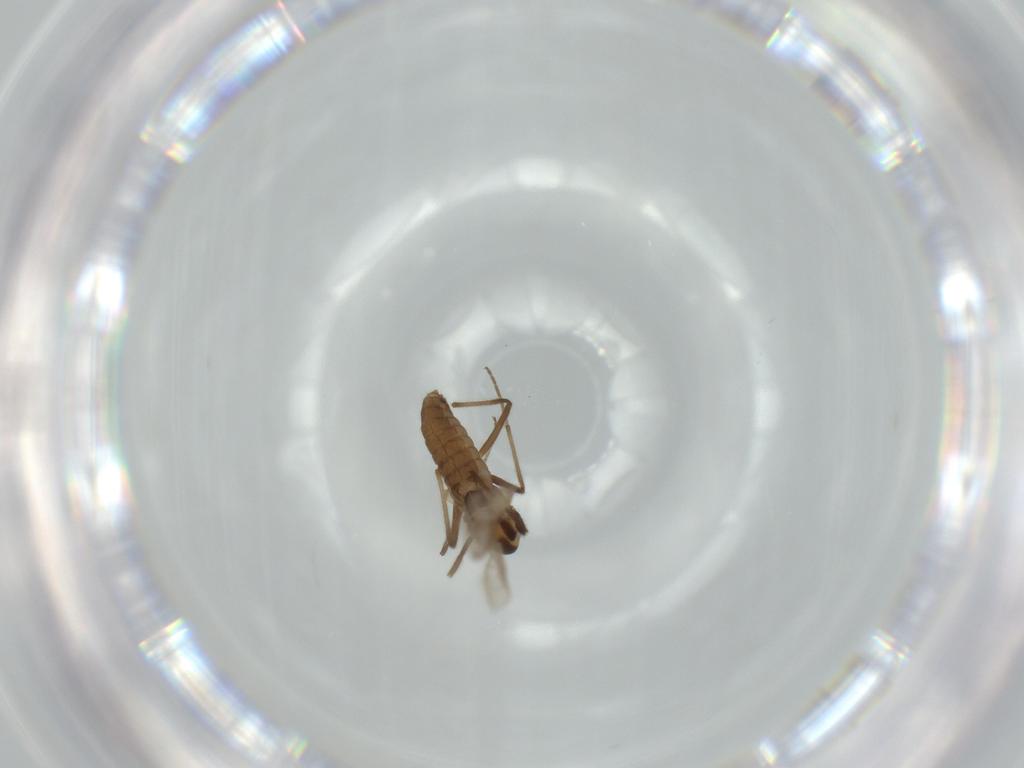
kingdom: Animalia
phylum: Arthropoda
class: Insecta
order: Diptera
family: Chironomidae
